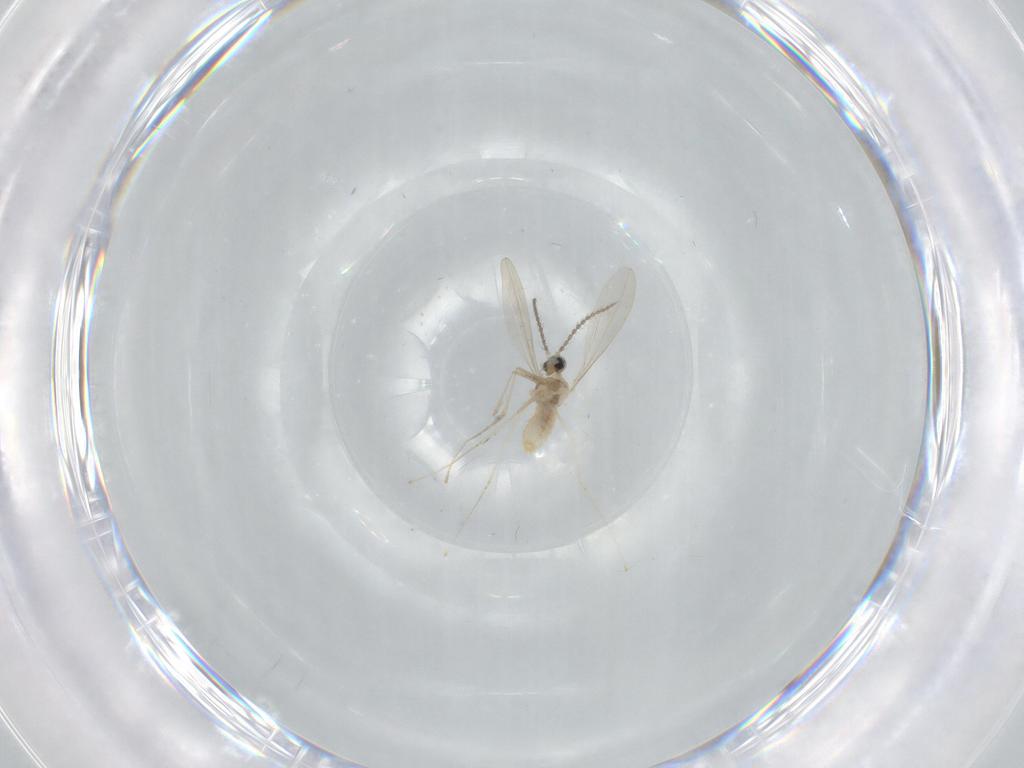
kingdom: Animalia
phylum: Arthropoda
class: Insecta
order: Diptera
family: Cecidomyiidae
